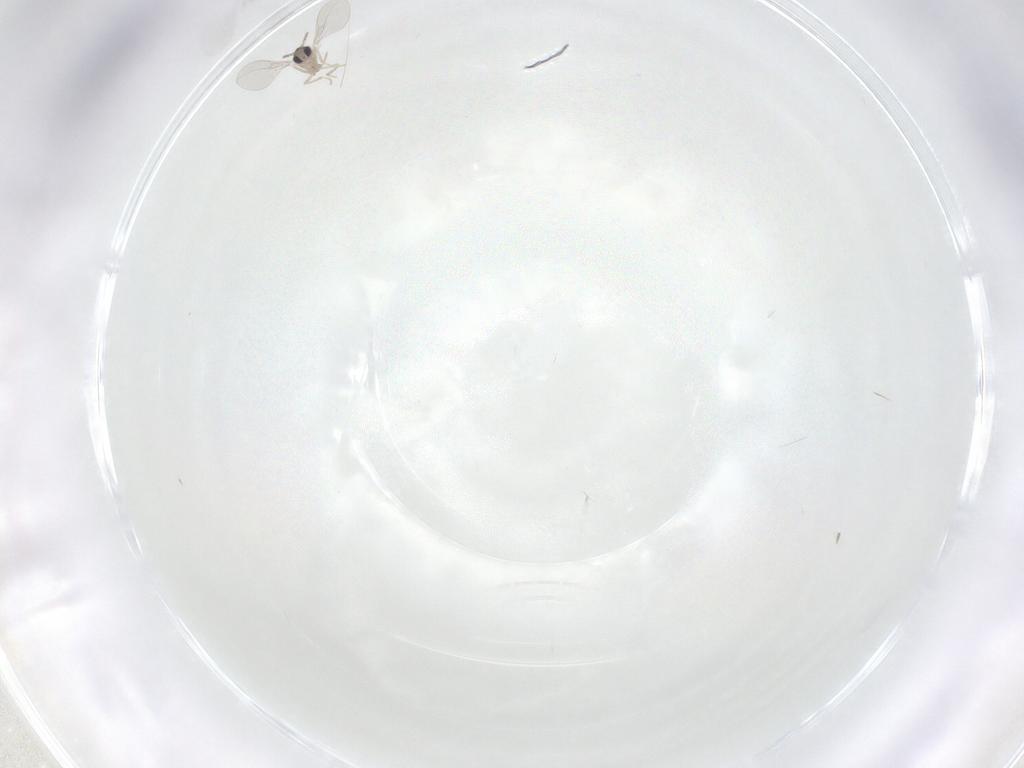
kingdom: Animalia
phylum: Arthropoda
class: Insecta
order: Diptera
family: Cecidomyiidae
